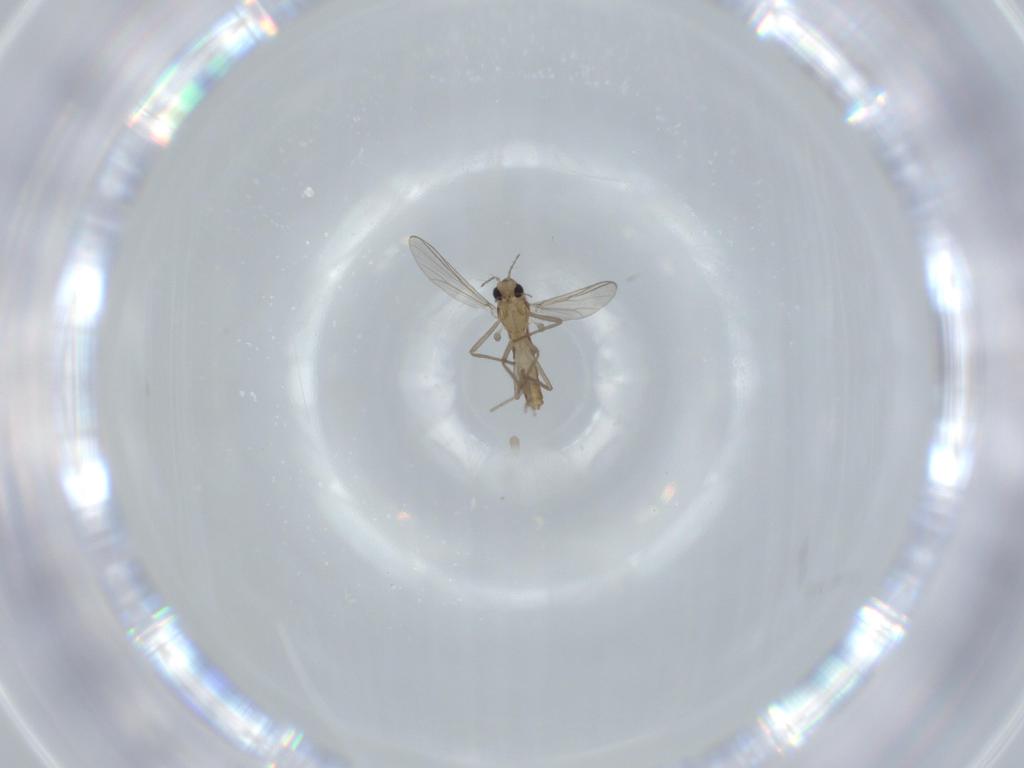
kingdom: Animalia
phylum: Arthropoda
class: Insecta
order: Diptera
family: Chironomidae
